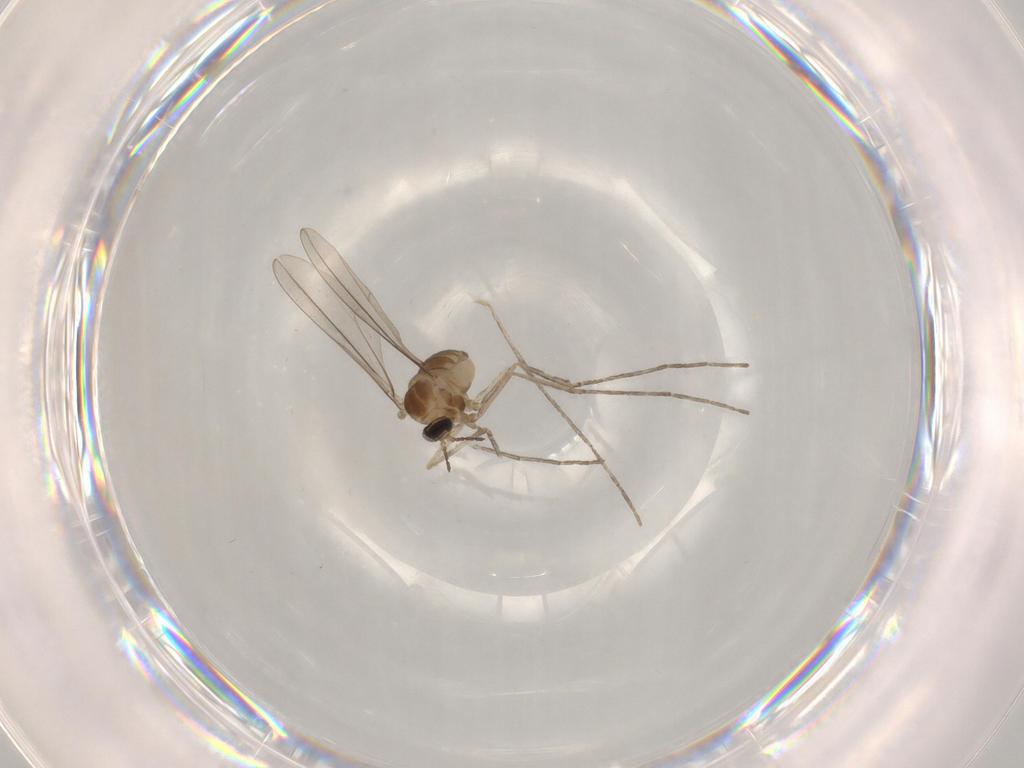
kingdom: Animalia
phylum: Arthropoda
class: Insecta
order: Diptera
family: Cecidomyiidae
